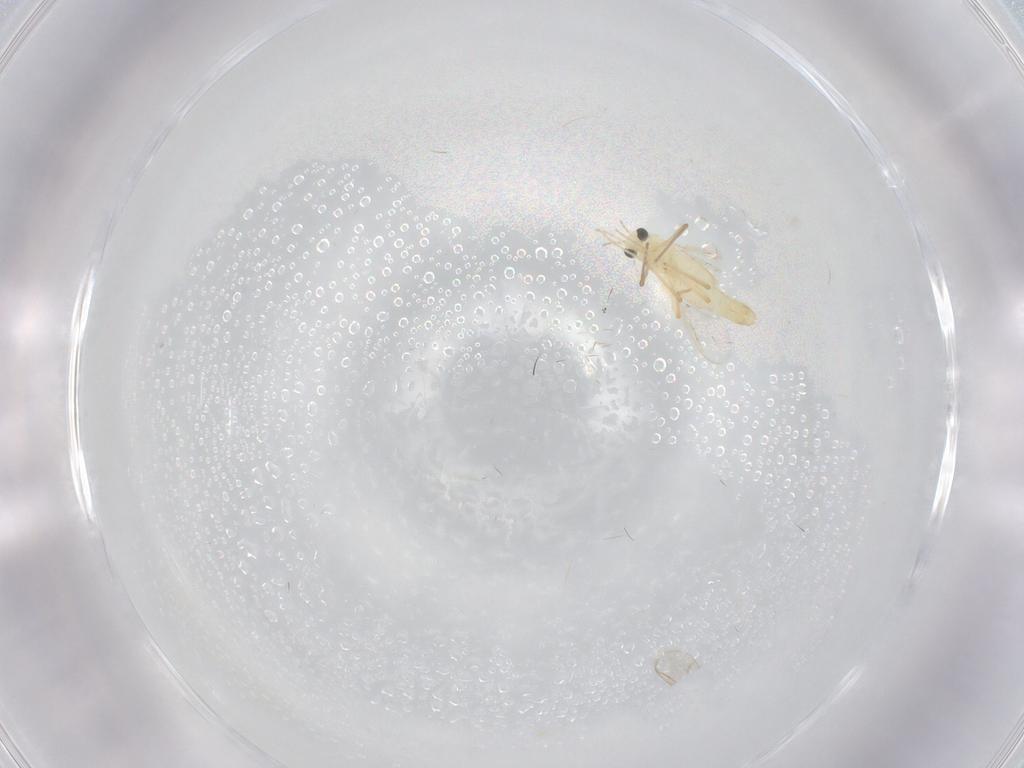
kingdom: Animalia
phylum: Arthropoda
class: Insecta
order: Diptera
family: Chironomidae
